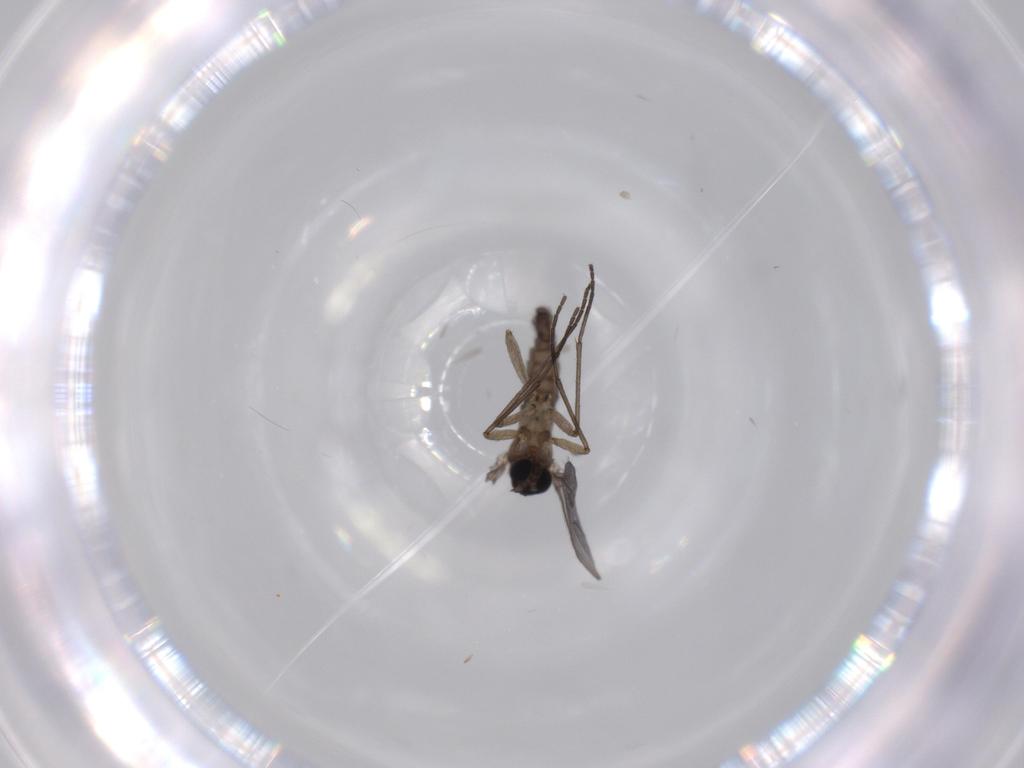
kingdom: Animalia
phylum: Arthropoda
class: Insecta
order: Diptera
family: Sciaridae
